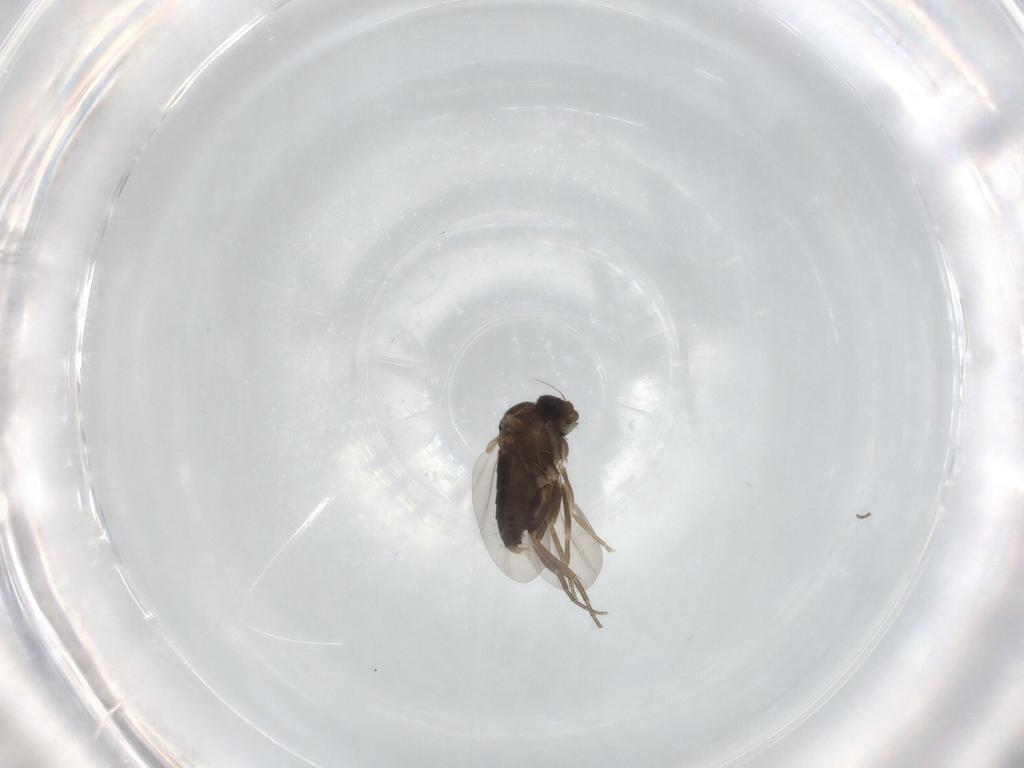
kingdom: Animalia
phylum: Arthropoda
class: Insecta
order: Diptera
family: Phoridae
